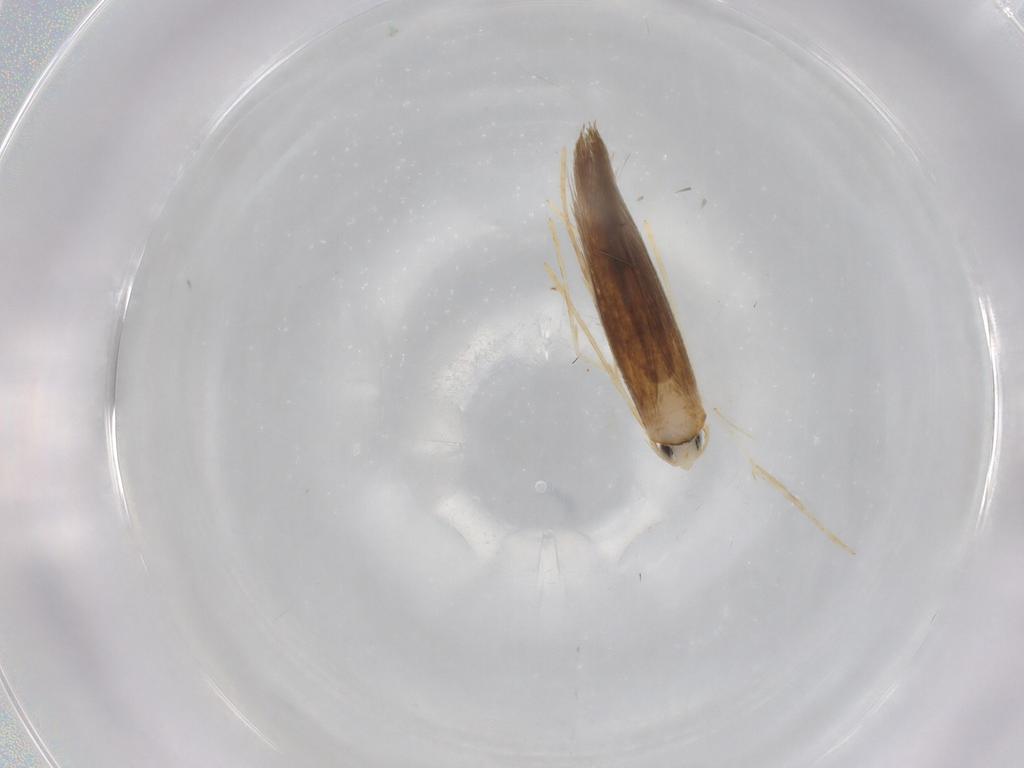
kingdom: Animalia
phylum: Arthropoda
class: Insecta
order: Lepidoptera
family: Lyonetiidae
